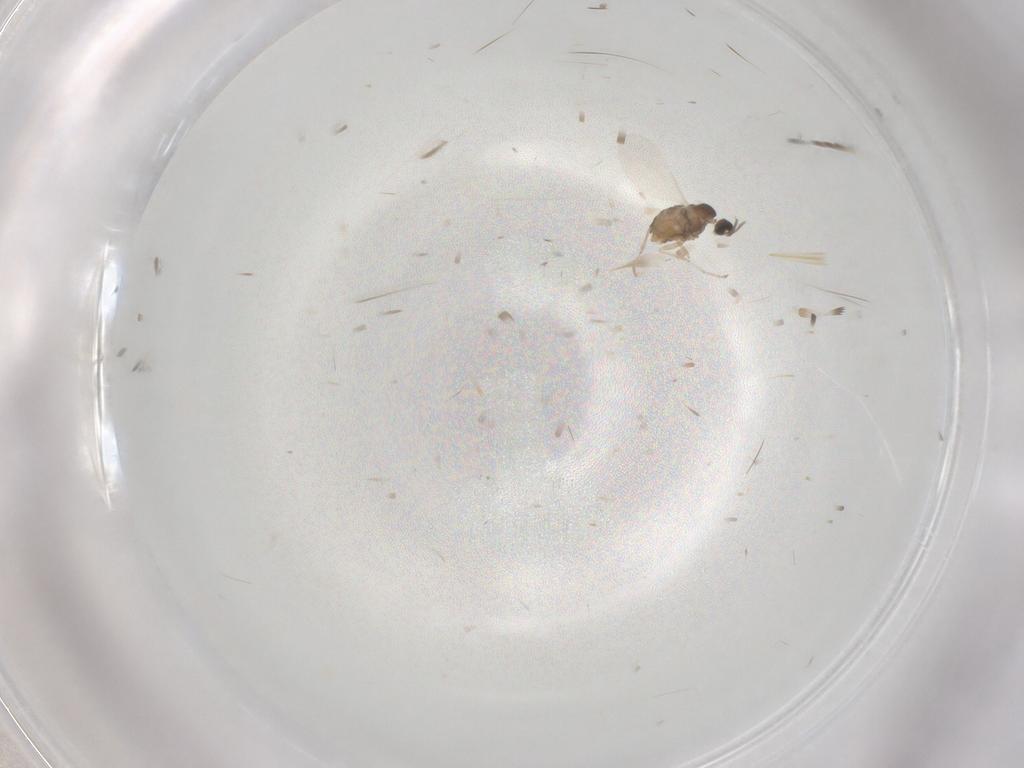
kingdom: Animalia
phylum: Arthropoda
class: Insecta
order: Diptera
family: Cecidomyiidae
